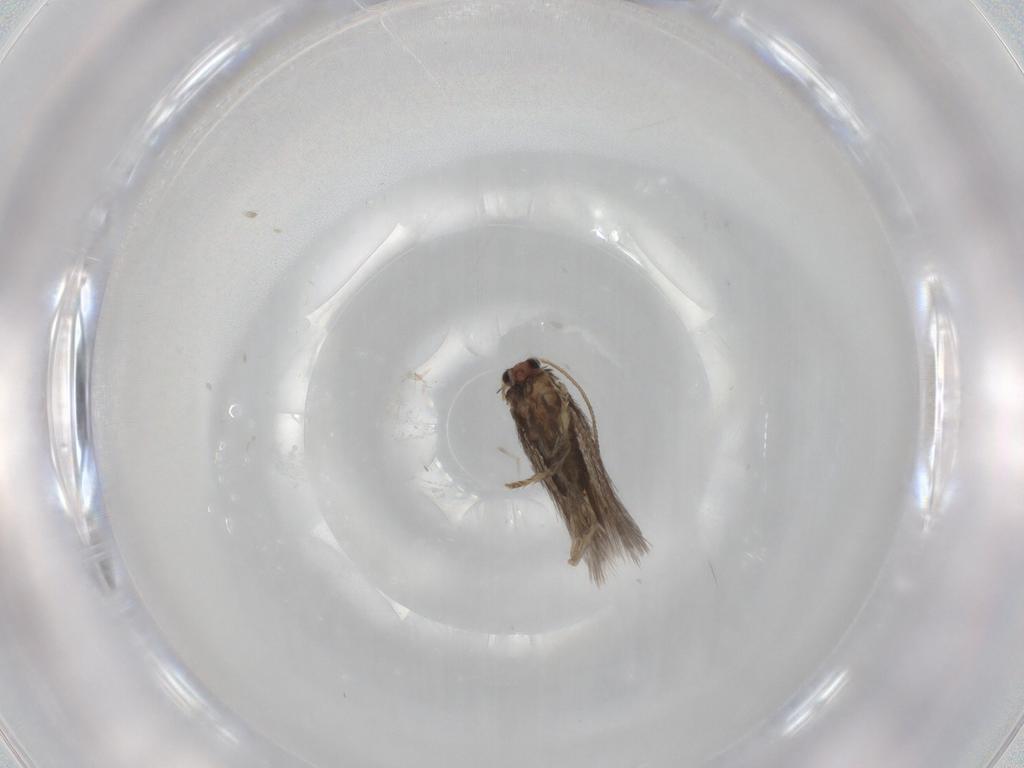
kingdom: Animalia
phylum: Arthropoda
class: Insecta
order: Lepidoptera
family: Nepticulidae
